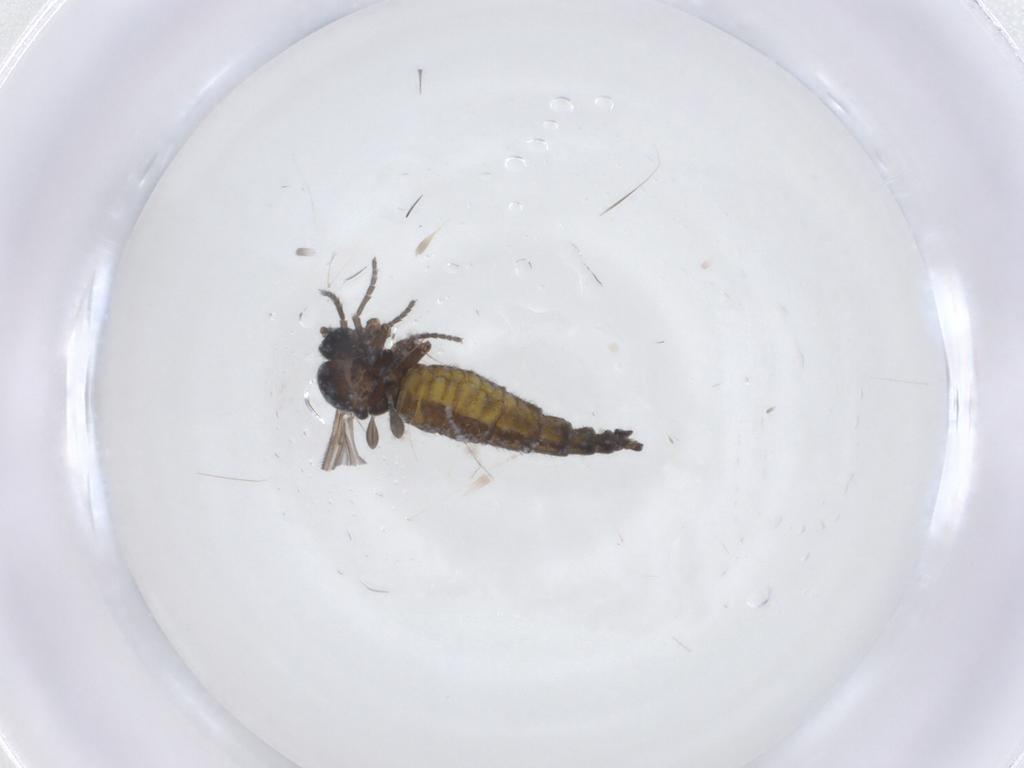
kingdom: Animalia
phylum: Arthropoda
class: Insecta
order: Diptera
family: Sciaridae
